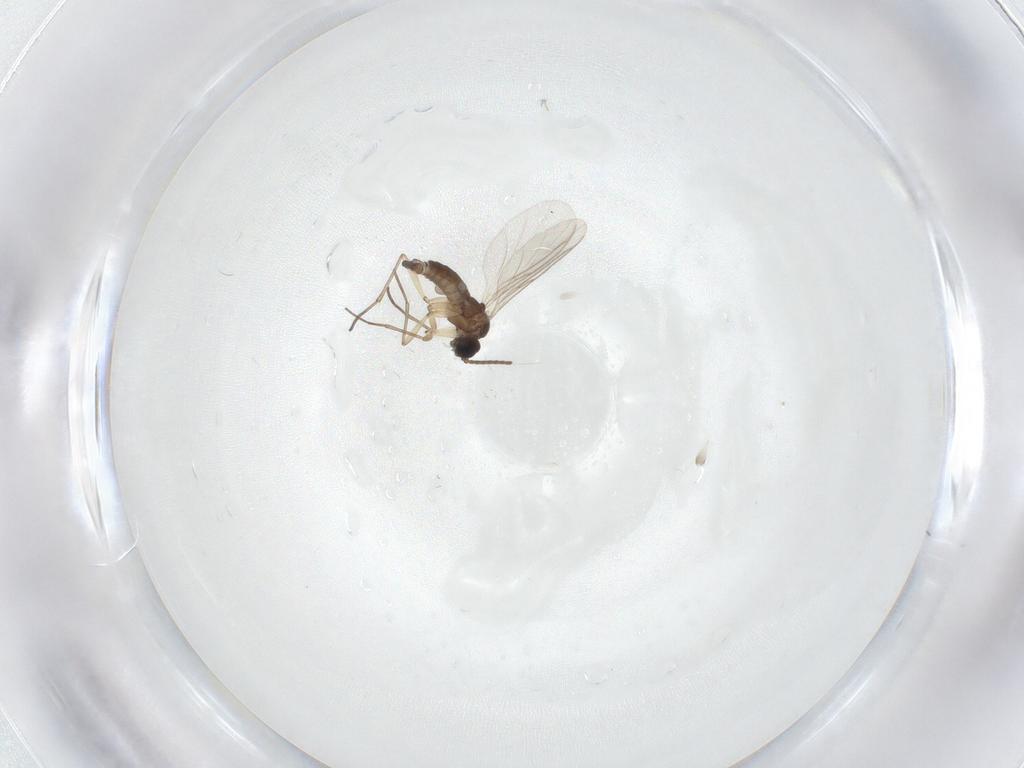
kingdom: Animalia
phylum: Arthropoda
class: Insecta
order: Diptera
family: Sciaridae
